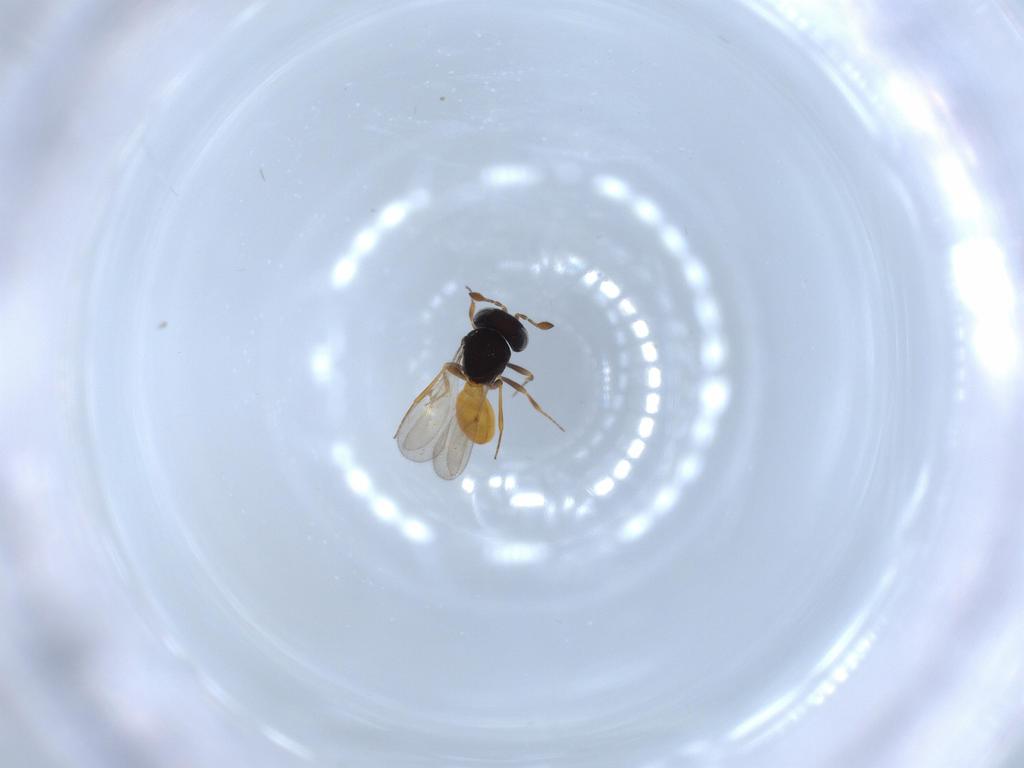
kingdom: Animalia
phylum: Arthropoda
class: Insecta
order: Hymenoptera
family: Scelionidae
